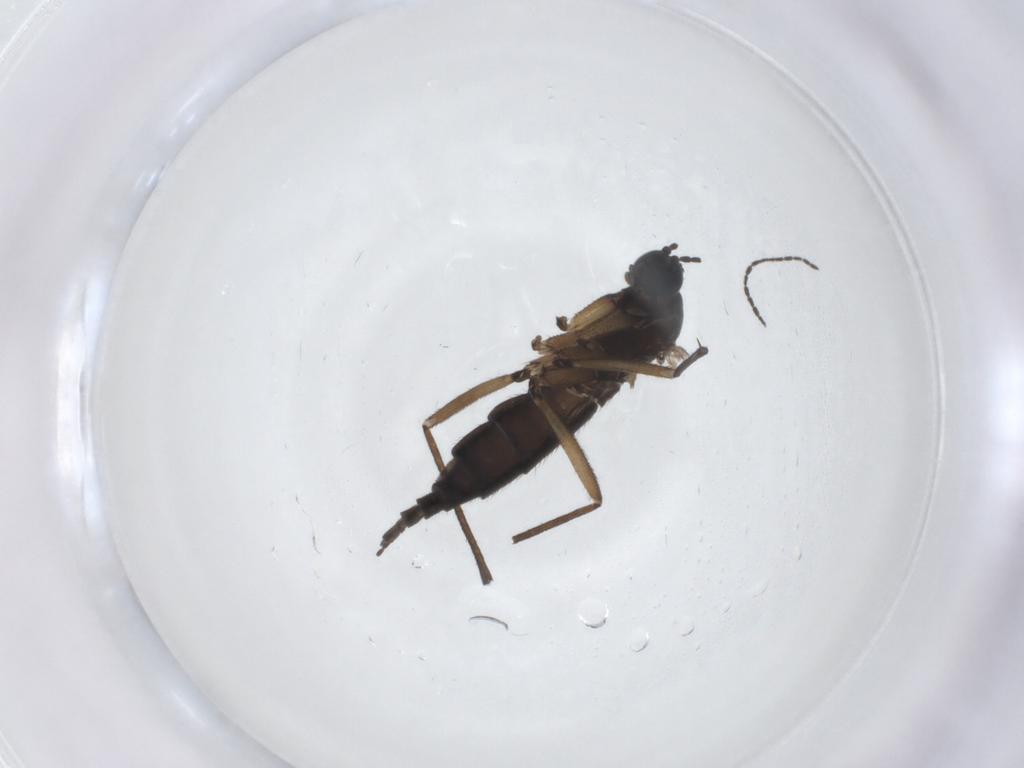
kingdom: Animalia
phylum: Arthropoda
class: Insecta
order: Diptera
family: Sciaridae
